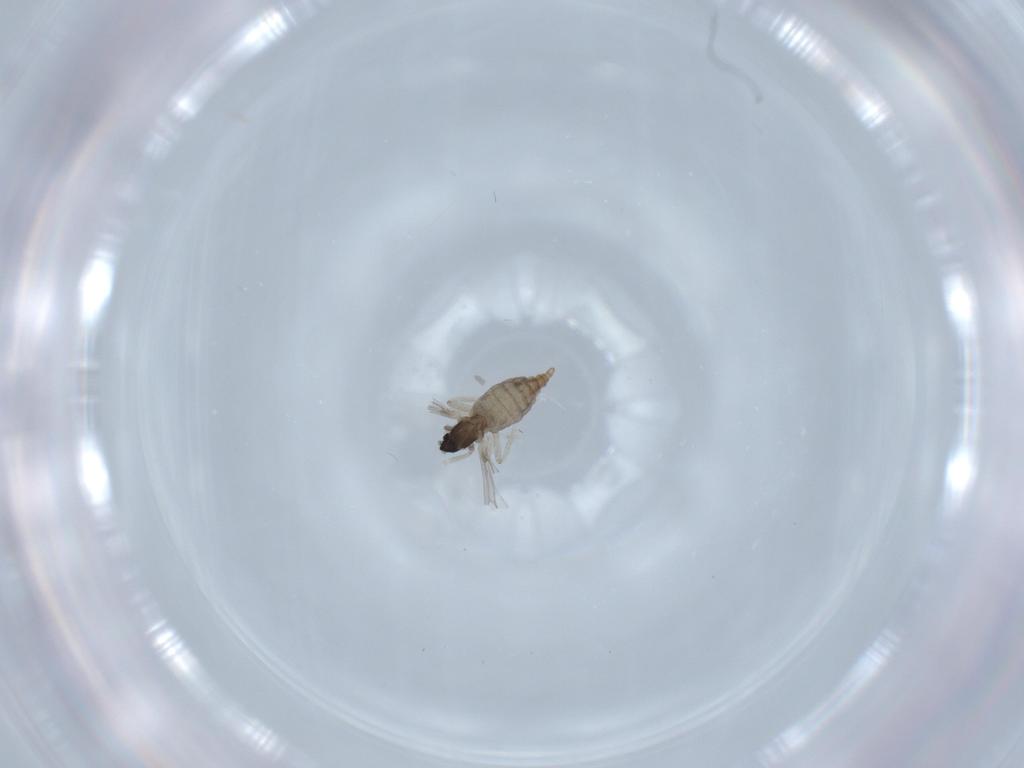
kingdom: Animalia
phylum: Arthropoda
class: Insecta
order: Diptera
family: Cecidomyiidae
